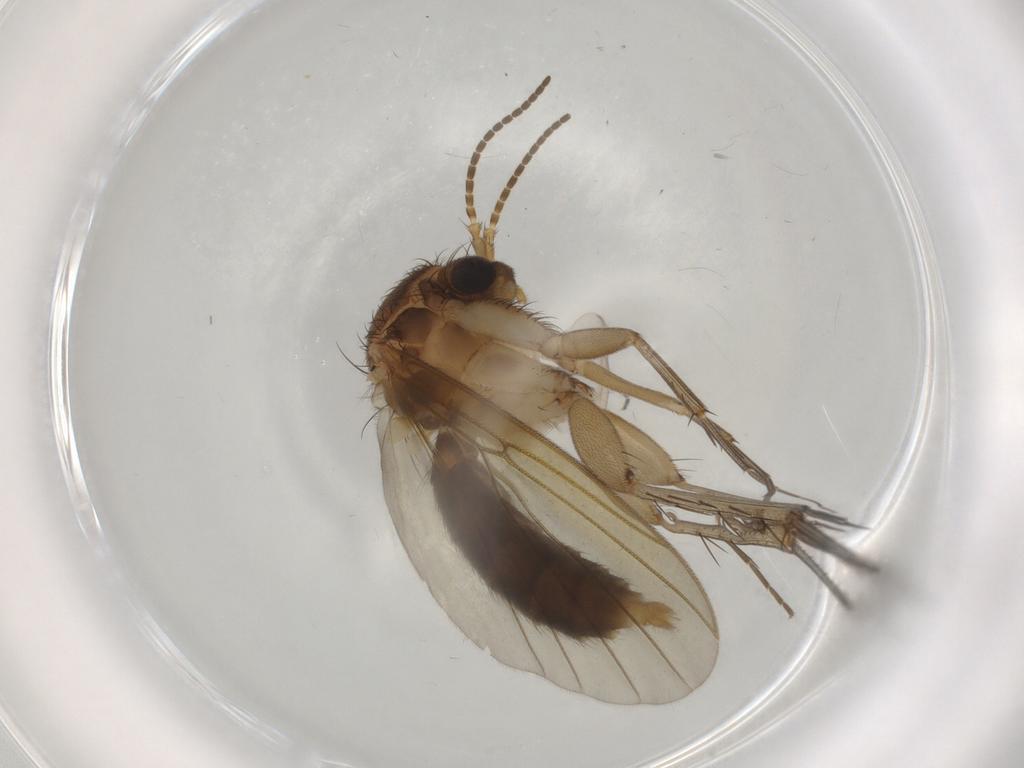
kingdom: Animalia
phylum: Arthropoda
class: Insecta
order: Diptera
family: Mycetophilidae
